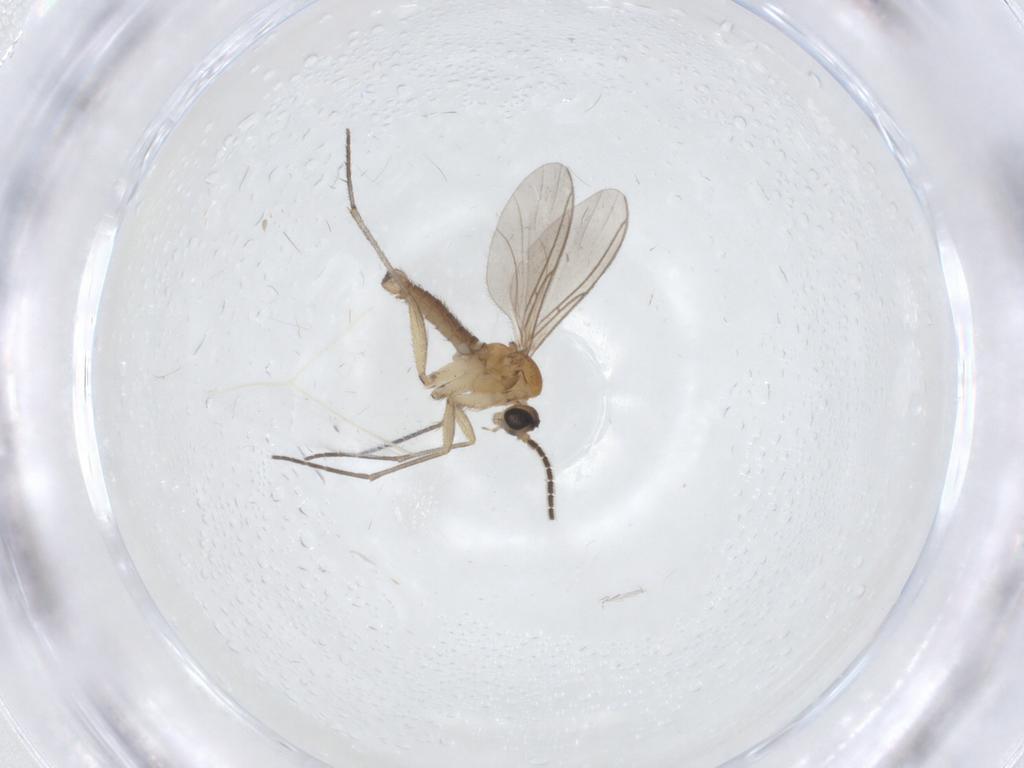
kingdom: Animalia
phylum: Arthropoda
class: Insecta
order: Diptera
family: Sciaridae
